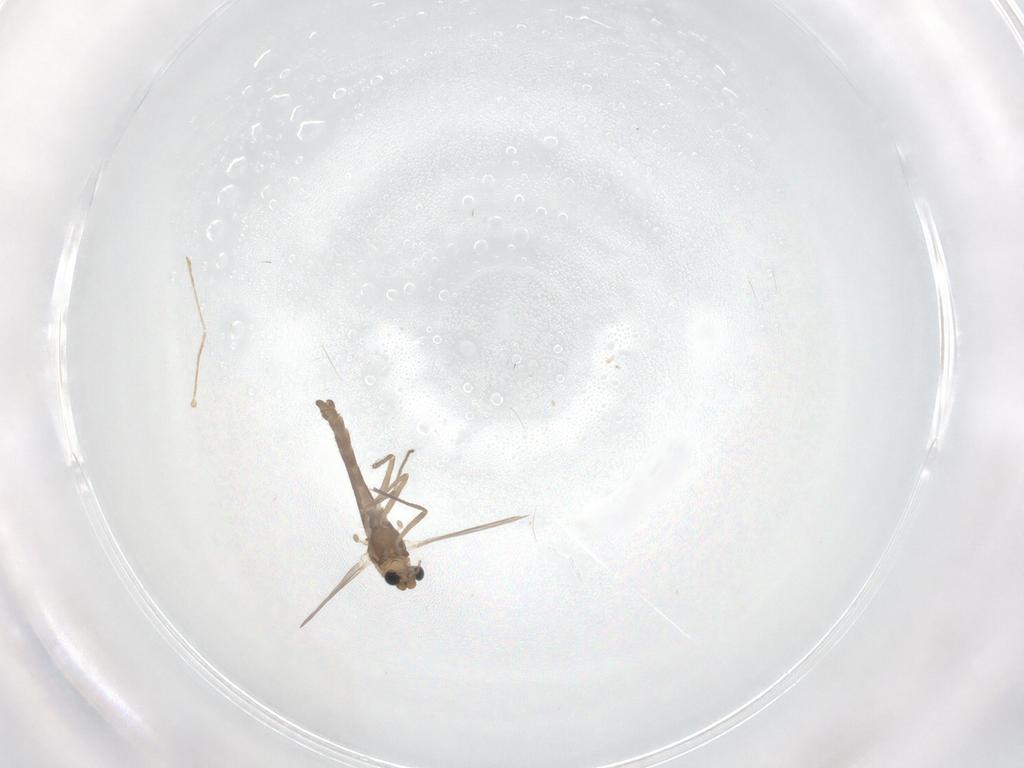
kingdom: Animalia
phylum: Arthropoda
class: Insecta
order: Diptera
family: Chironomidae
